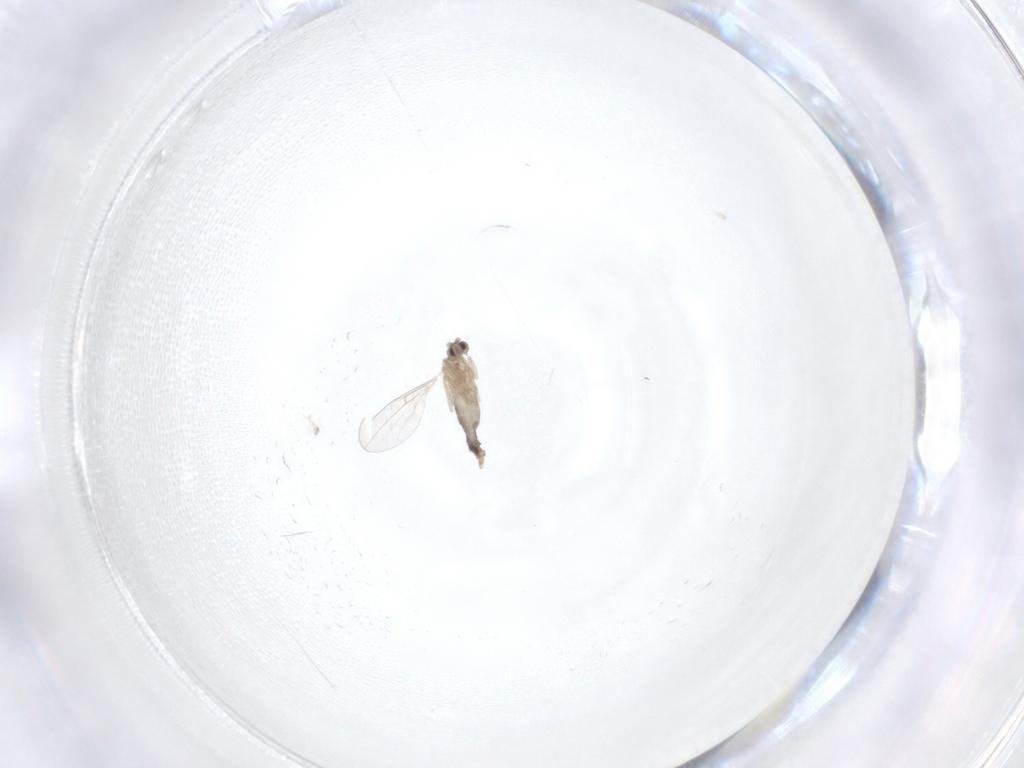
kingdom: Animalia
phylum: Arthropoda
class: Insecta
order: Diptera
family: Cecidomyiidae
